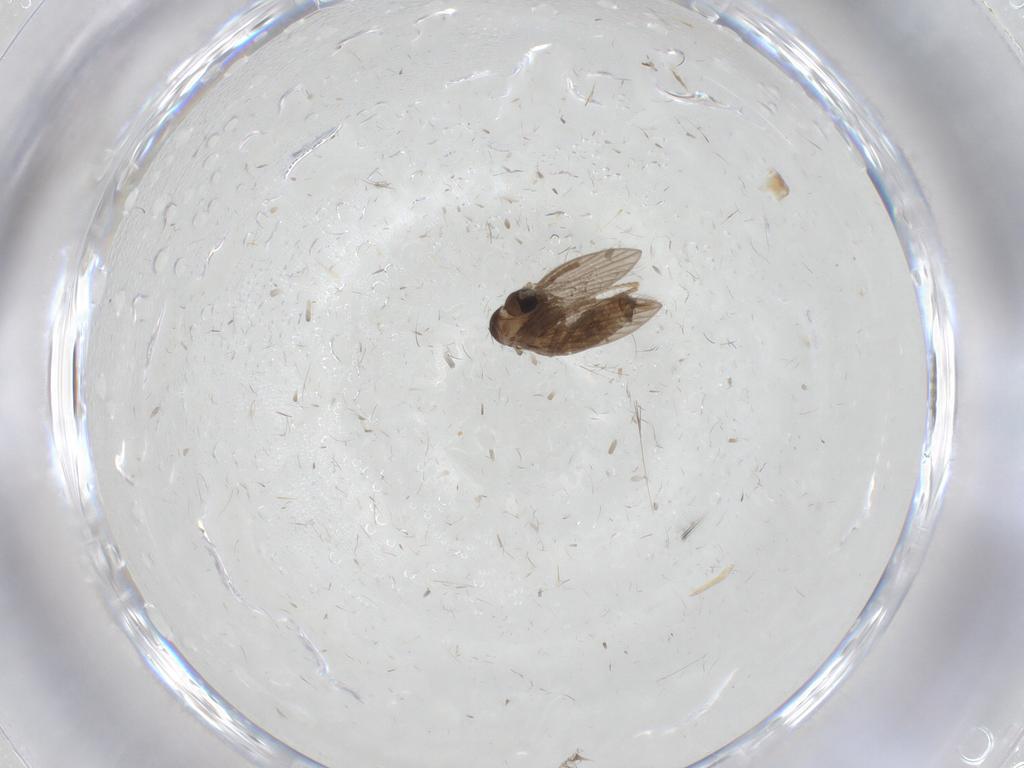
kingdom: Animalia
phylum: Arthropoda
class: Insecta
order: Diptera
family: Psychodidae
